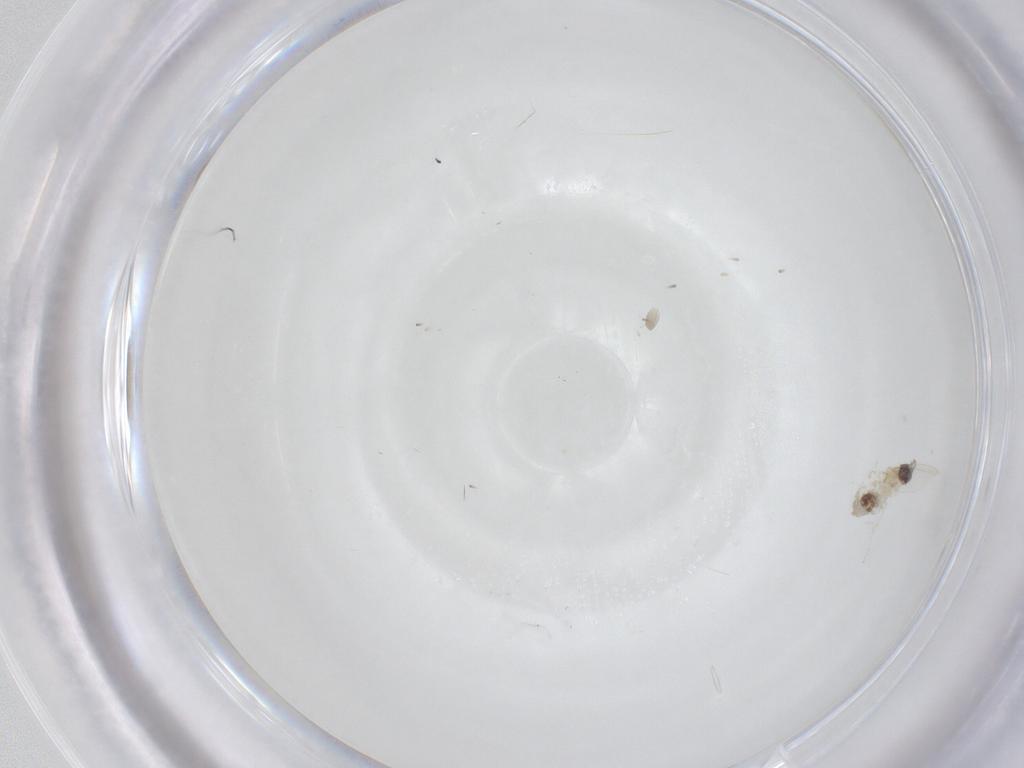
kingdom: Animalia
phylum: Arthropoda
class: Insecta
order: Diptera
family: Cecidomyiidae
